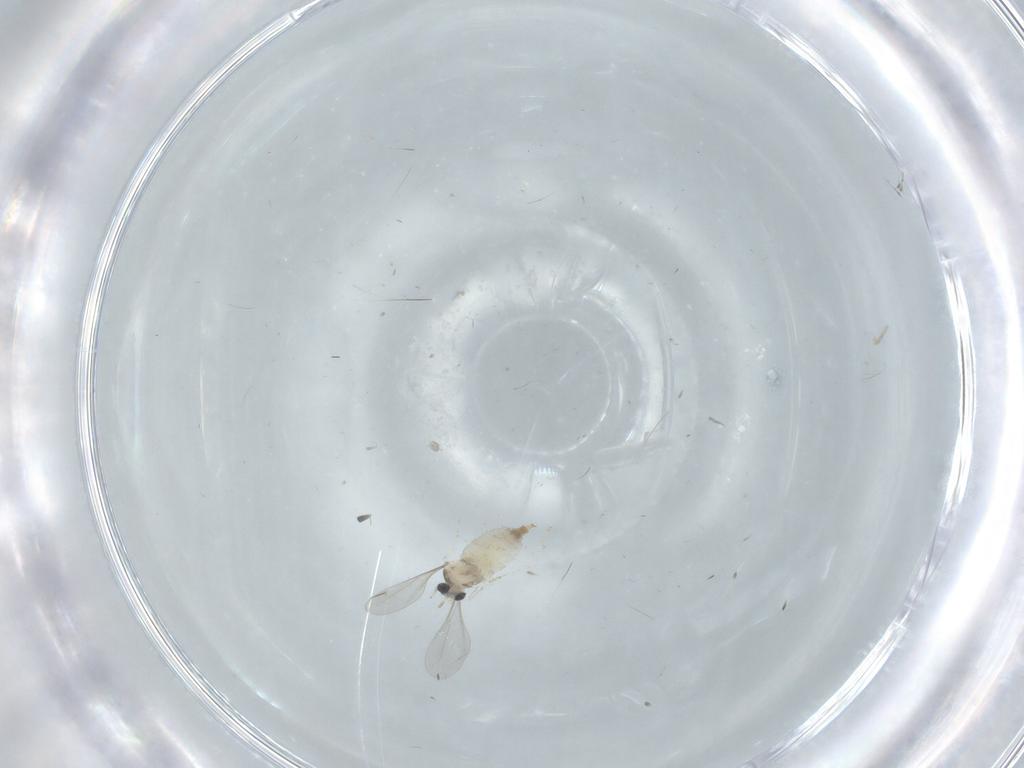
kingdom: Animalia
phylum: Arthropoda
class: Insecta
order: Diptera
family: Cecidomyiidae
